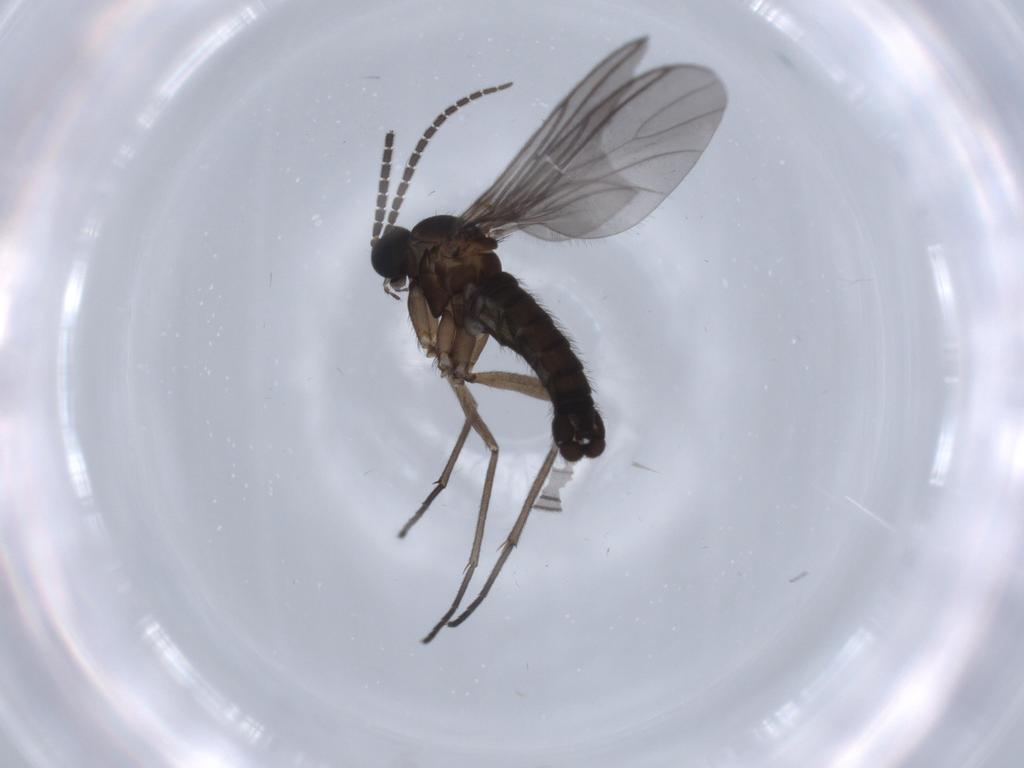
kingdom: Animalia
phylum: Arthropoda
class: Insecta
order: Diptera
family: Sciaridae
